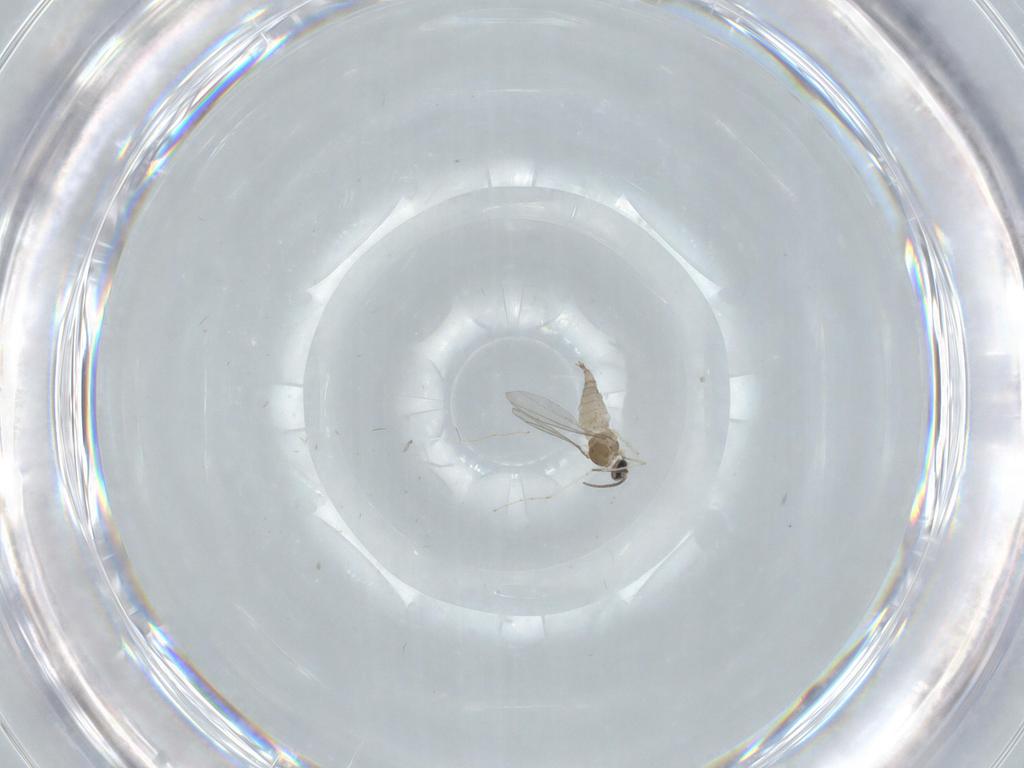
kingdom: Animalia
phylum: Arthropoda
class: Insecta
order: Diptera
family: Cecidomyiidae
